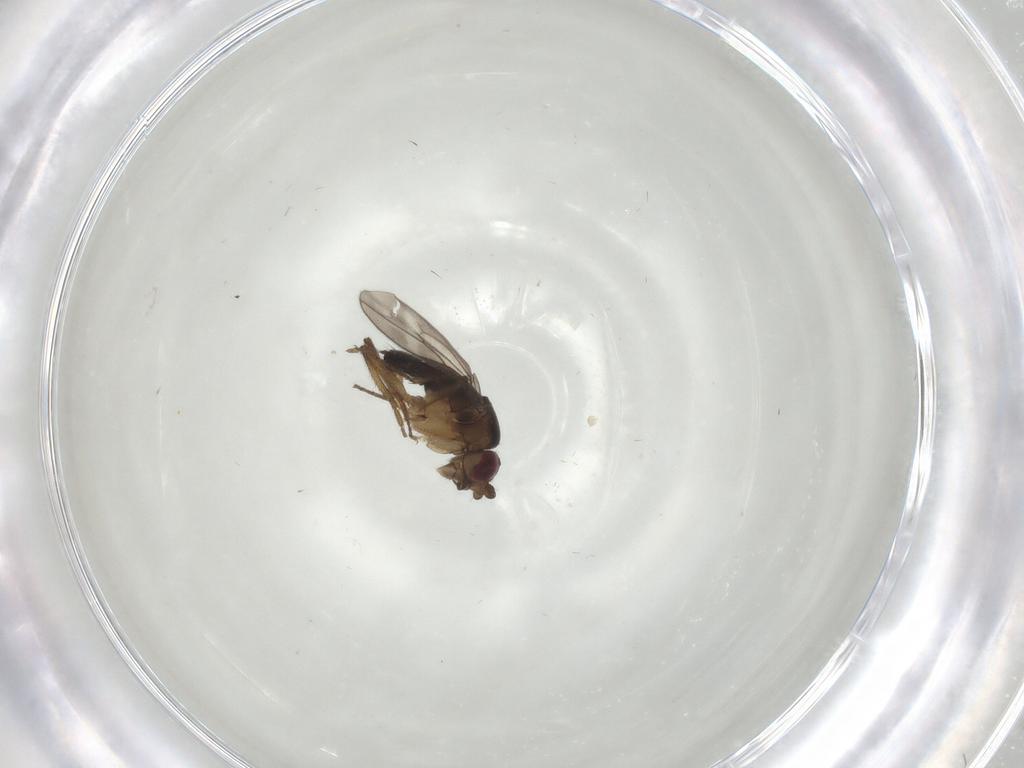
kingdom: Animalia
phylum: Arthropoda
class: Insecta
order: Diptera
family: Sphaeroceridae
